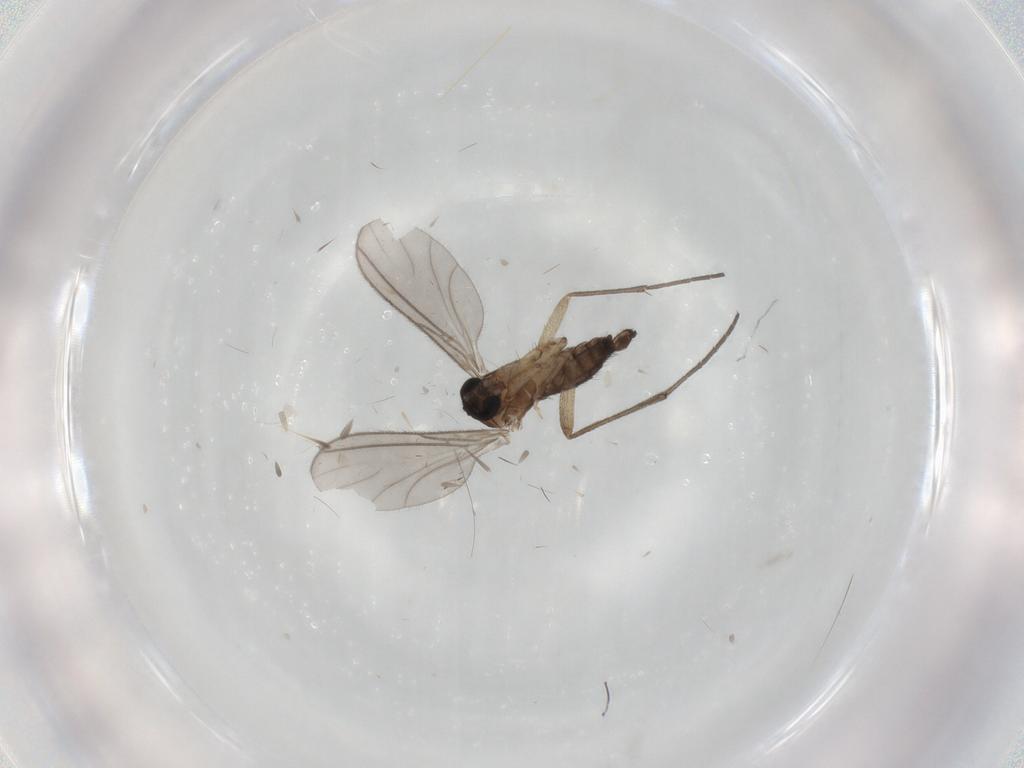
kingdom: Animalia
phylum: Arthropoda
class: Insecta
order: Diptera
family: Sciaridae
